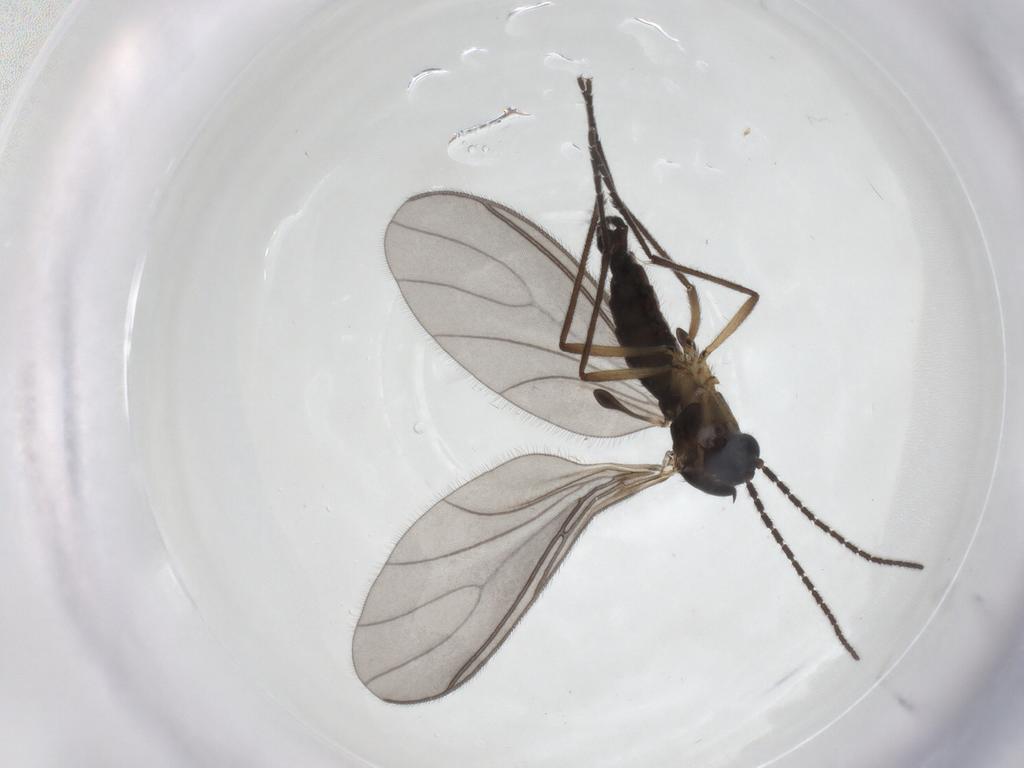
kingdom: Animalia
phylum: Arthropoda
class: Insecta
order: Diptera
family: Sciaridae
